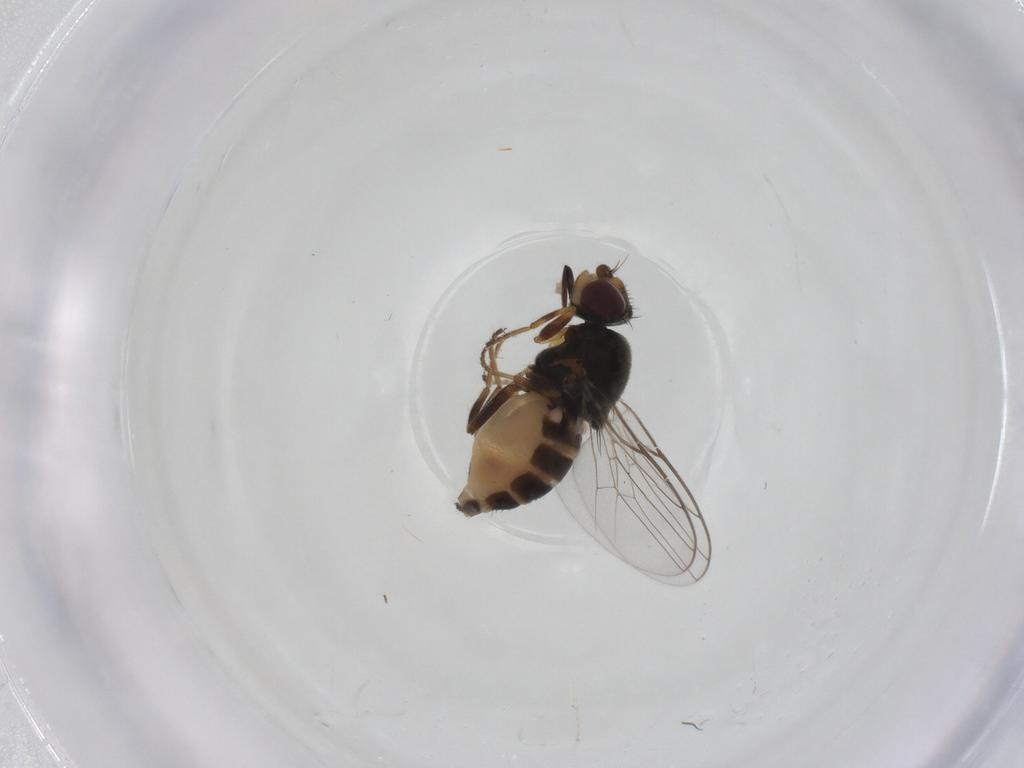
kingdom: Animalia
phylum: Arthropoda
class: Insecta
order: Diptera
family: Chloropidae
